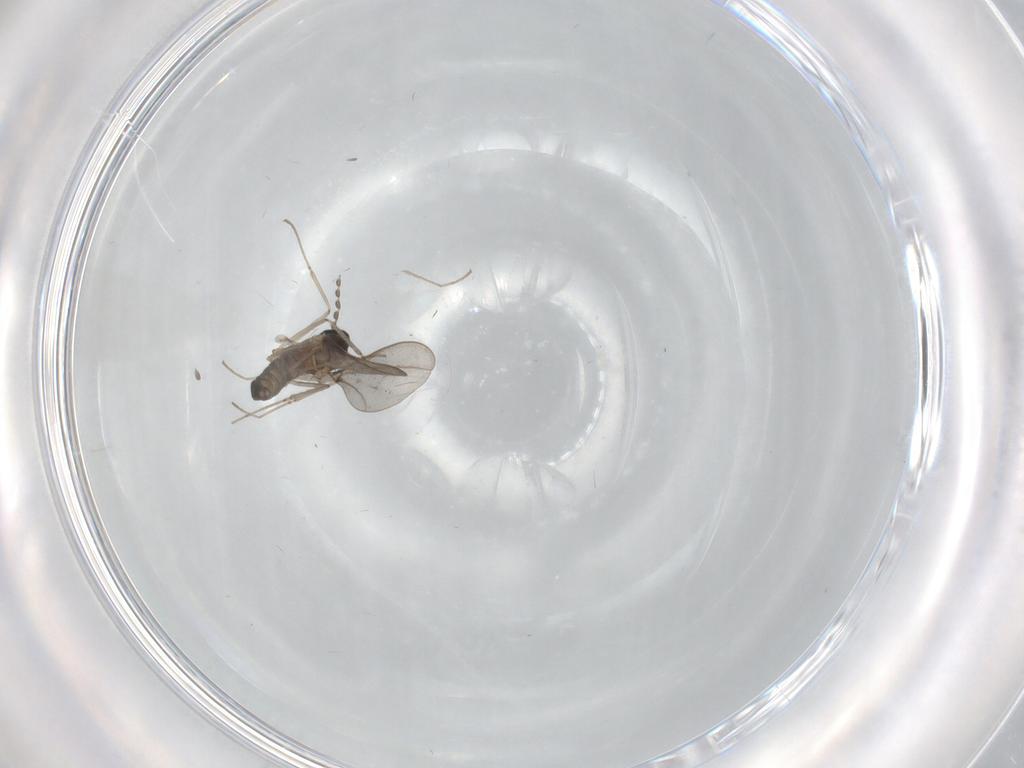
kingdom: Animalia
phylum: Arthropoda
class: Insecta
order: Diptera
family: Cecidomyiidae
